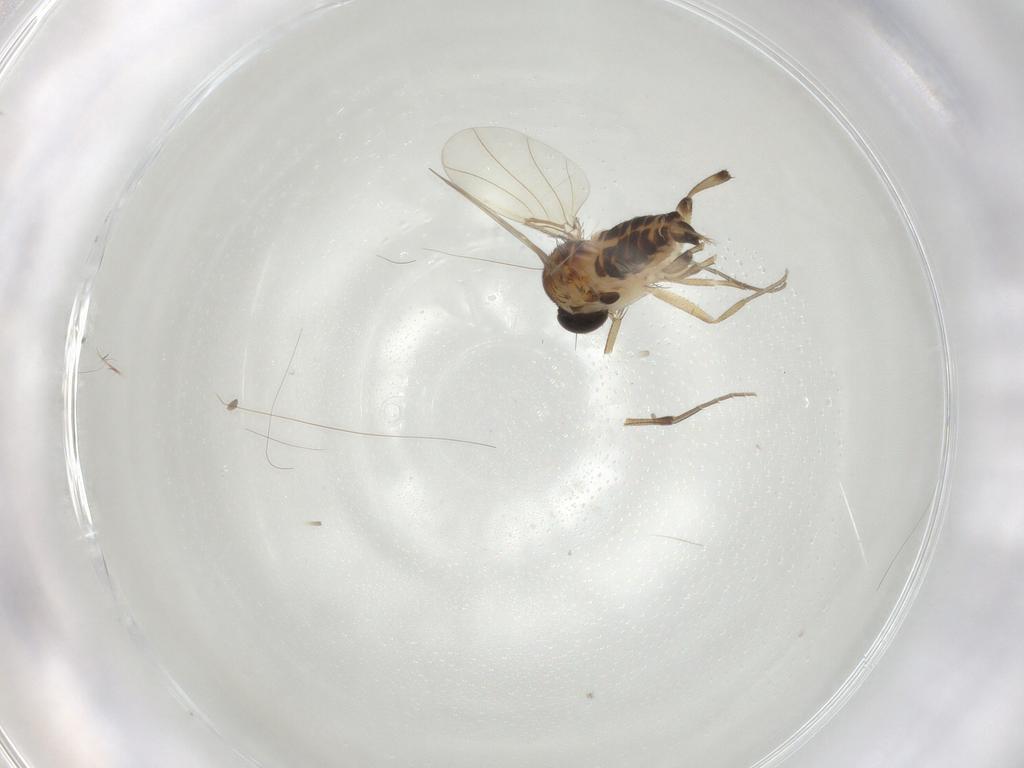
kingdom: Animalia
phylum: Arthropoda
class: Insecta
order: Diptera
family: Phoridae
